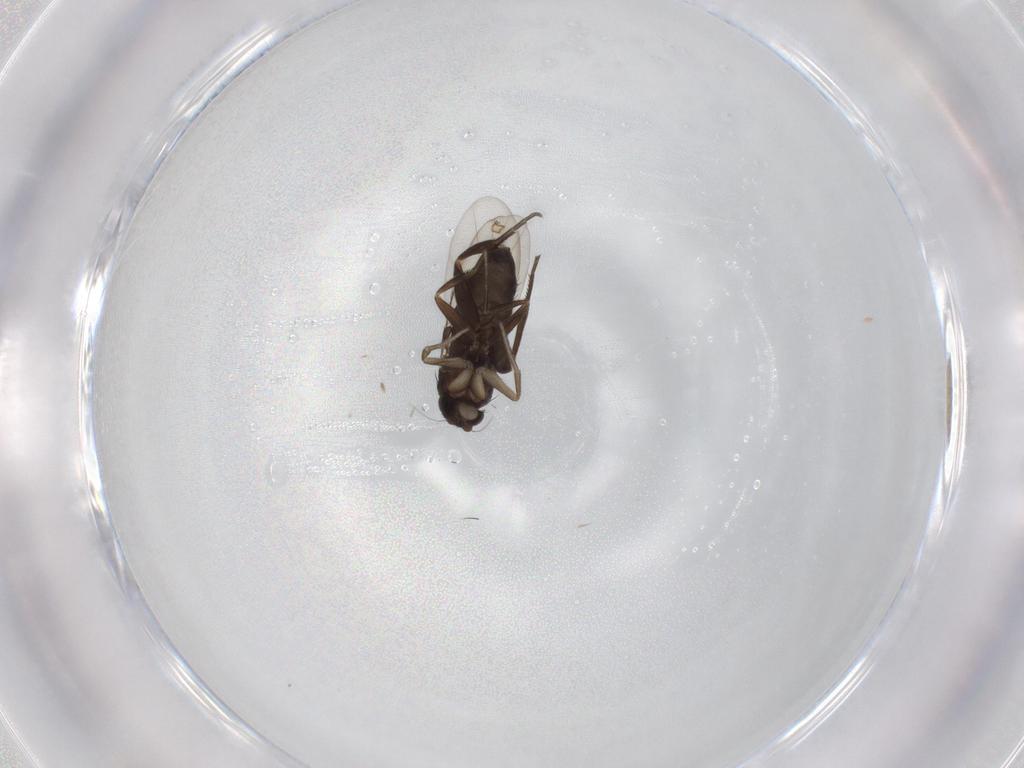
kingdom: Animalia
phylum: Arthropoda
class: Insecta
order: Diptera
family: Phoridae
